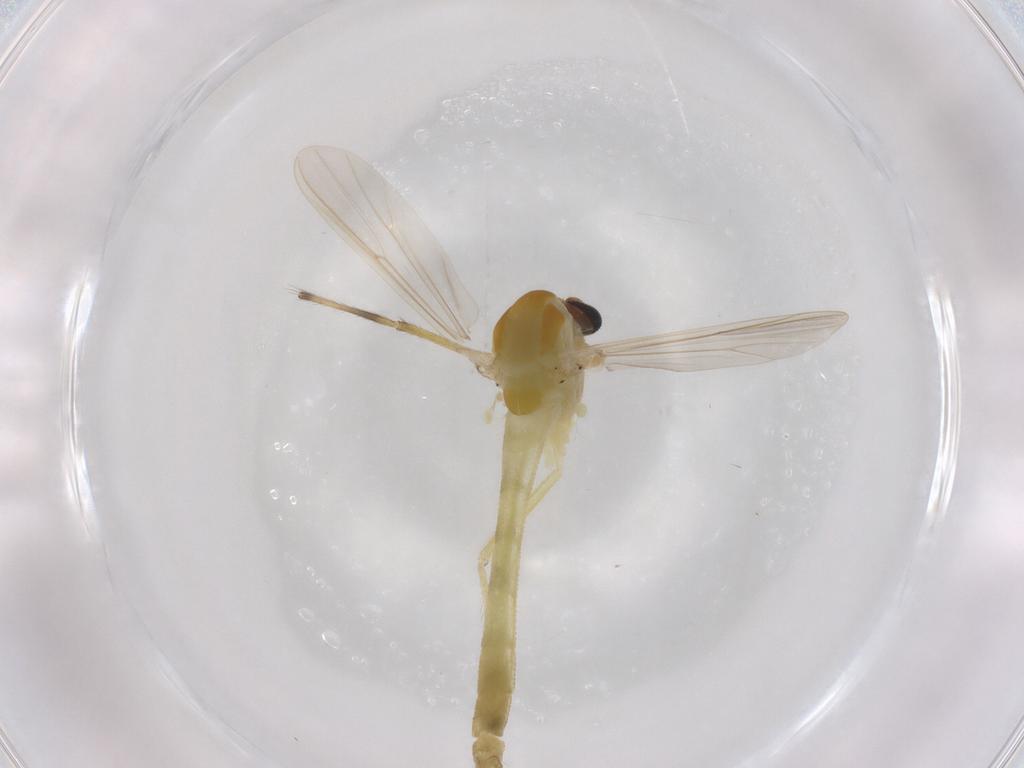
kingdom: Animalia
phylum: Arthropoda
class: Insecta
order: Diptera
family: Chironomidae
